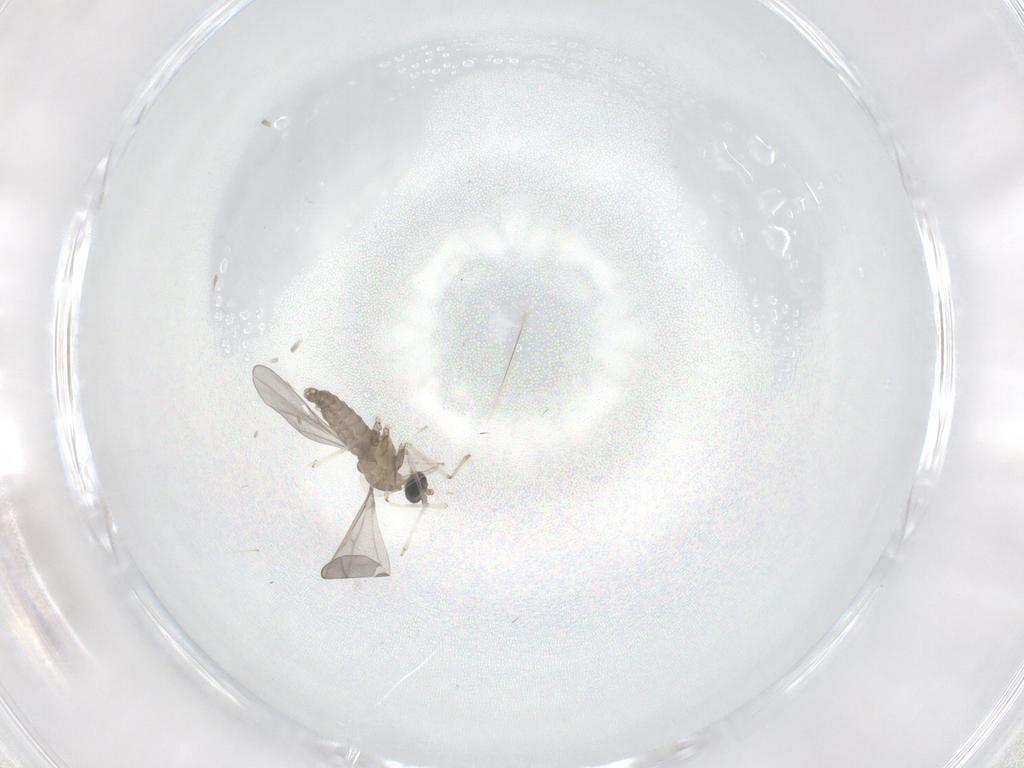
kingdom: Animalia
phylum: Arthropoda
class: Insecta
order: Diptera
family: Cecidomyiidae
